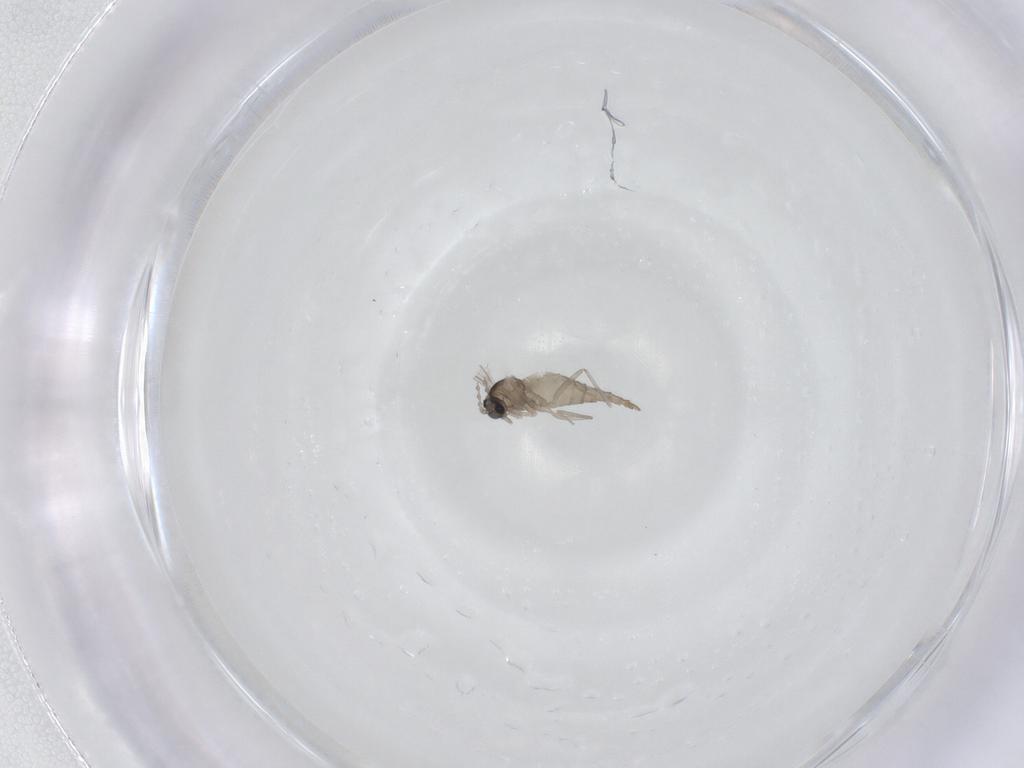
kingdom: Animalia
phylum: Arthropoda
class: Insecta
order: Diptera
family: Cecidomyiidae
